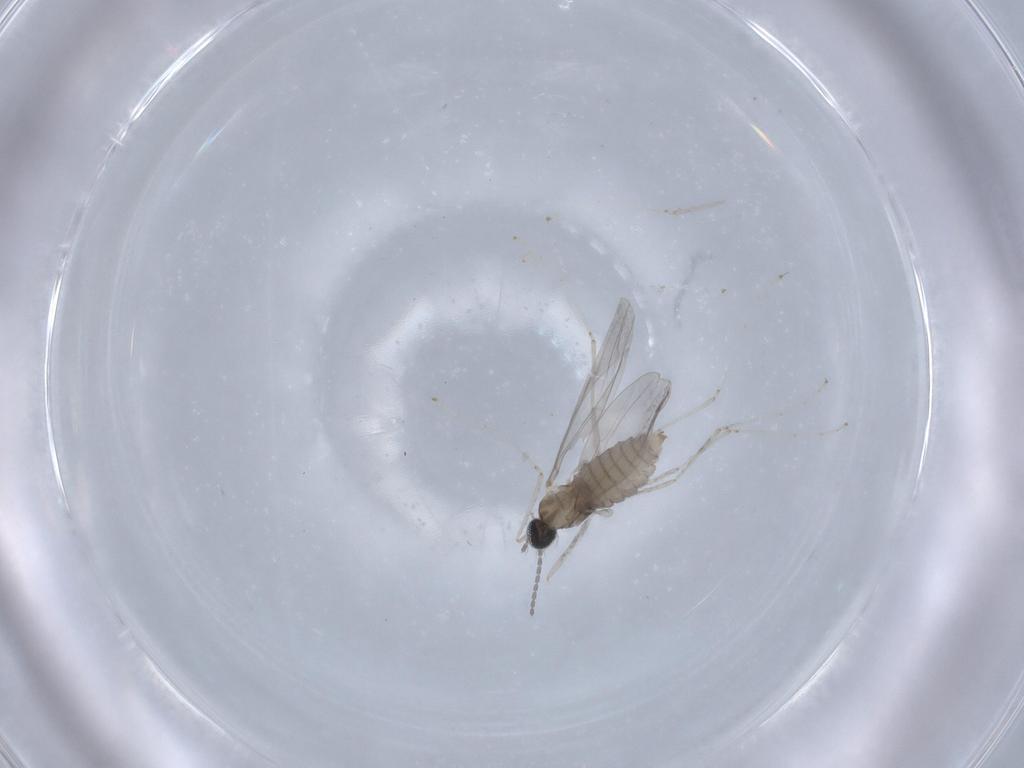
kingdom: Animalia
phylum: Arthropoda
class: Insecta
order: Diptera
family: Cecidomyiidae
